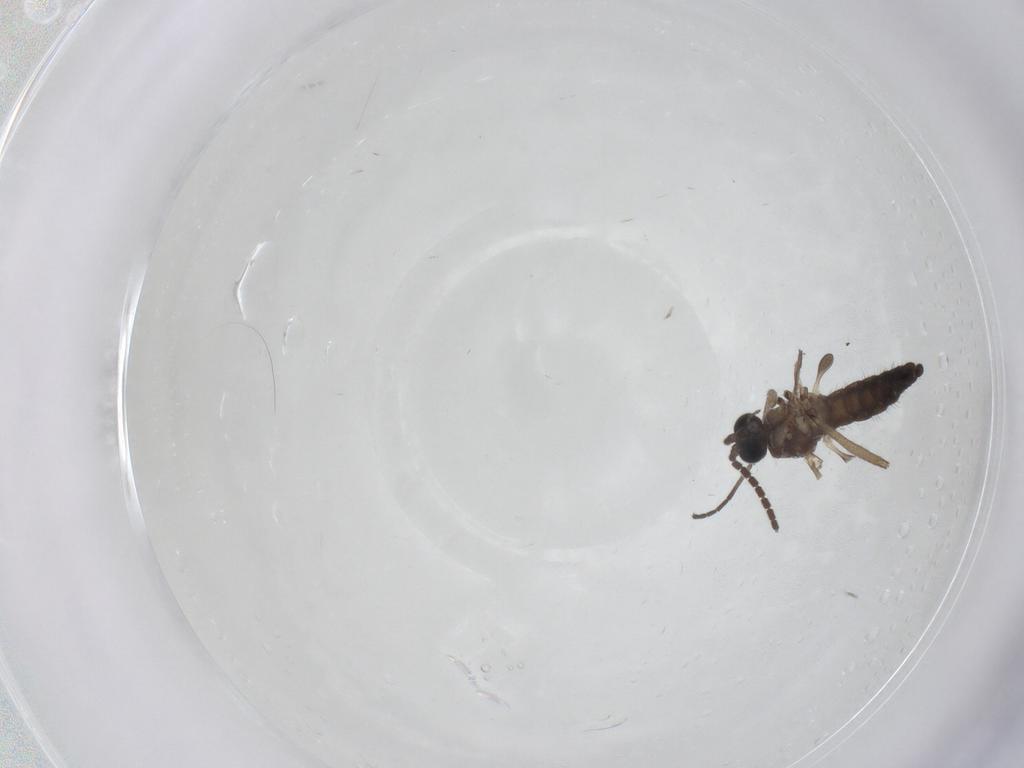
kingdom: Animalia
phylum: Arthropoda
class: Insecta
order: Diptera
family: Sciaridae
